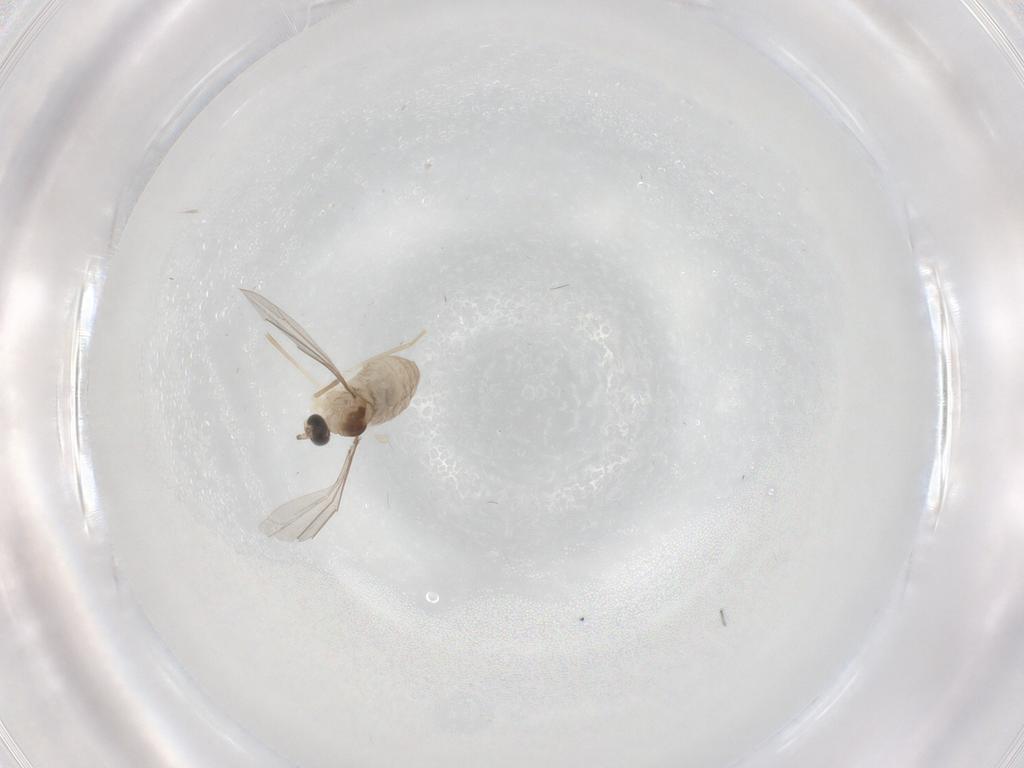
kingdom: Animalia
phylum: Arthropoda
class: Insecta
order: Diptera
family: Cecidomyiidae
